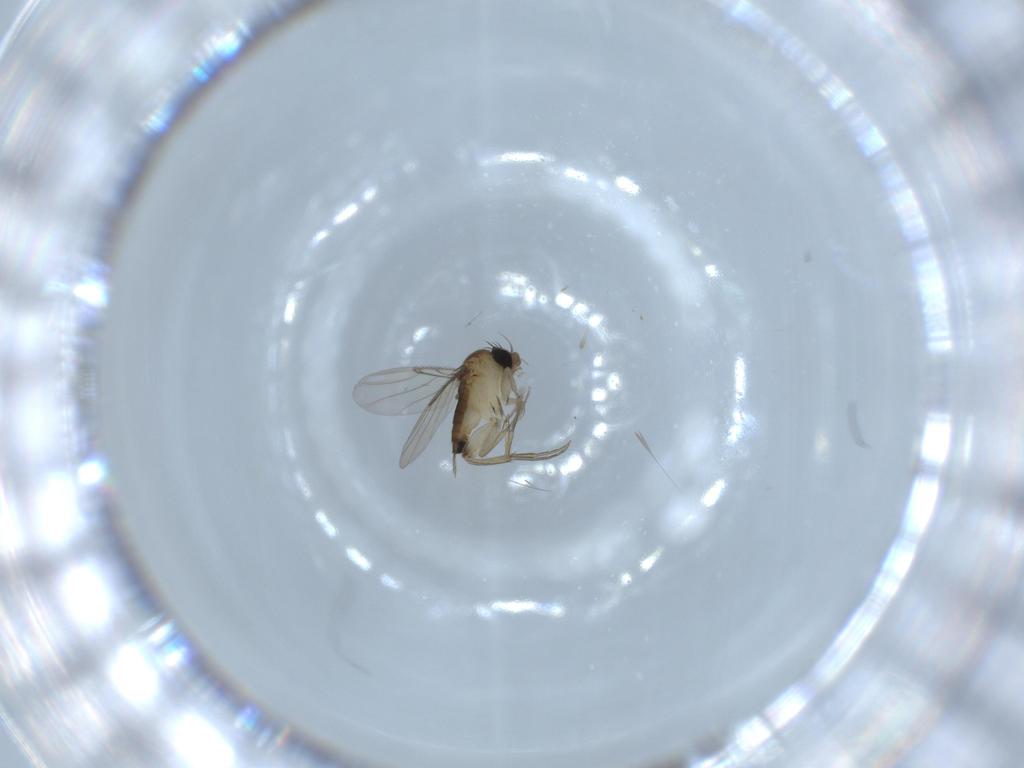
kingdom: Animalia
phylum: Arthropoda
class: Insecta
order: Diptera
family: Phoridae
